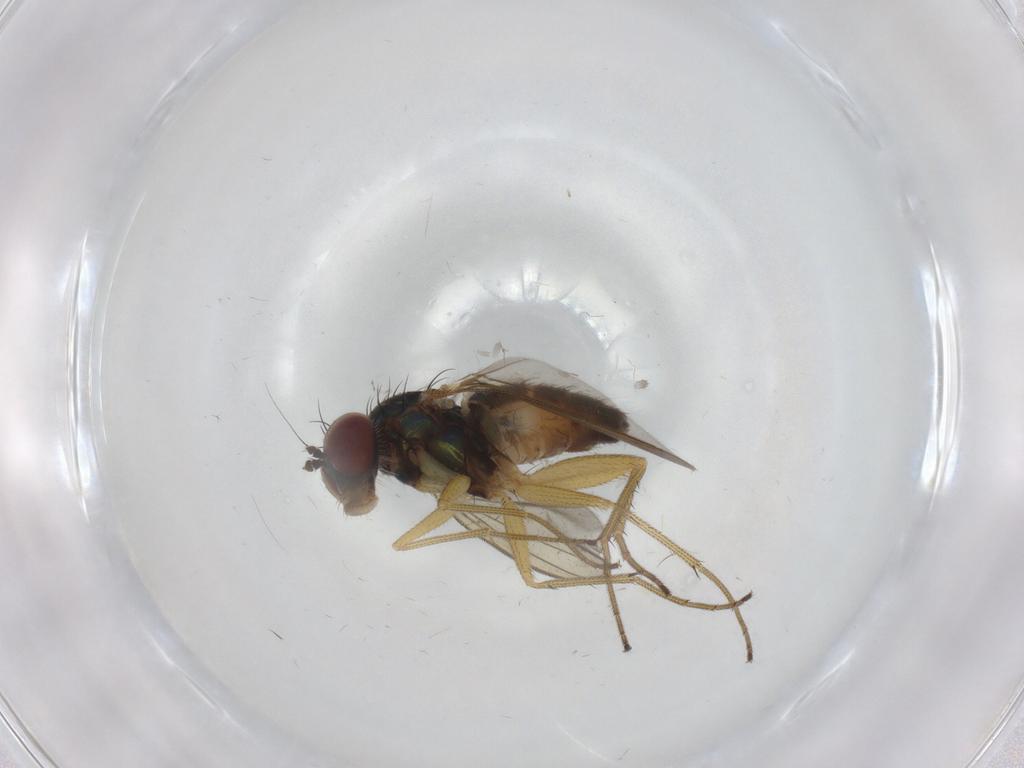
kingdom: Animalia
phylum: Arthropoda
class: Insecta
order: Diptera
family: Dolichopodidae
